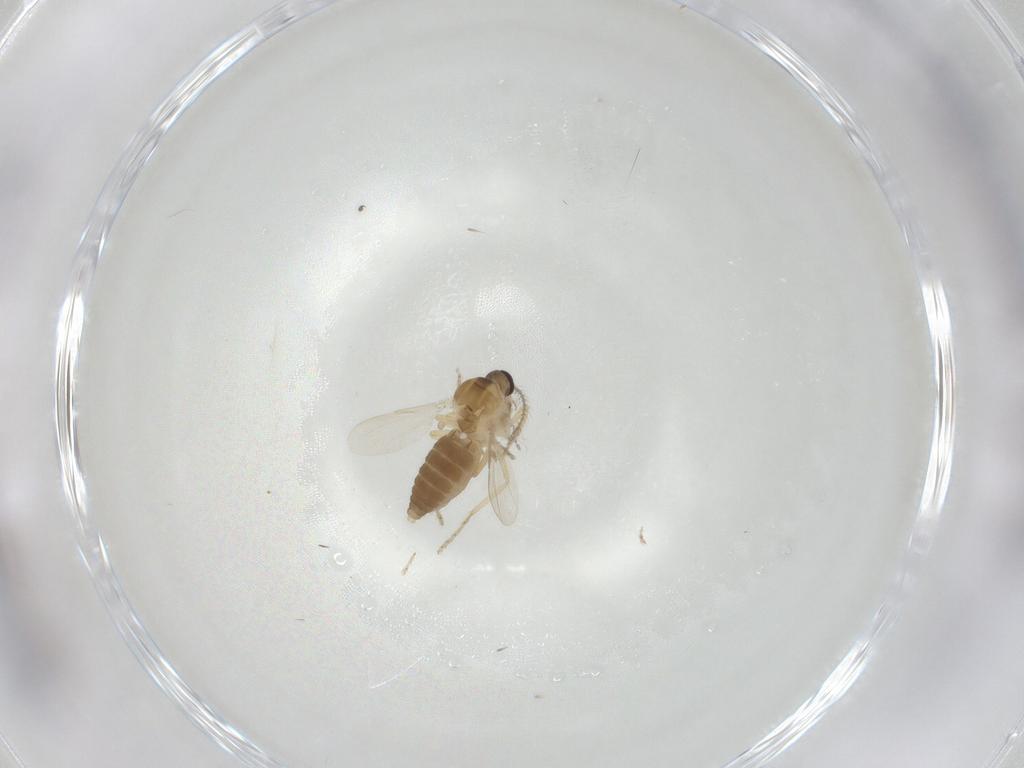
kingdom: Animalia
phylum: Arthropoda
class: Insecta
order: Diptera
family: Ceratopogonidae
